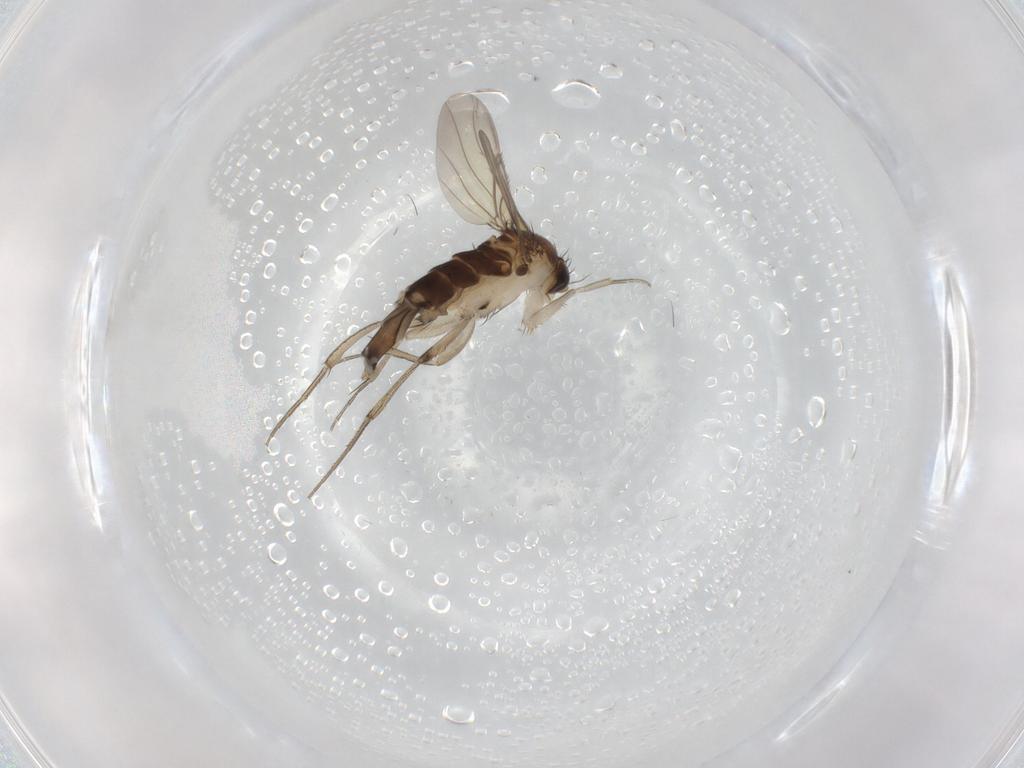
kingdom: Animalia
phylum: Arthropoda
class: Insecta
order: Diptera
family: Phoridae
